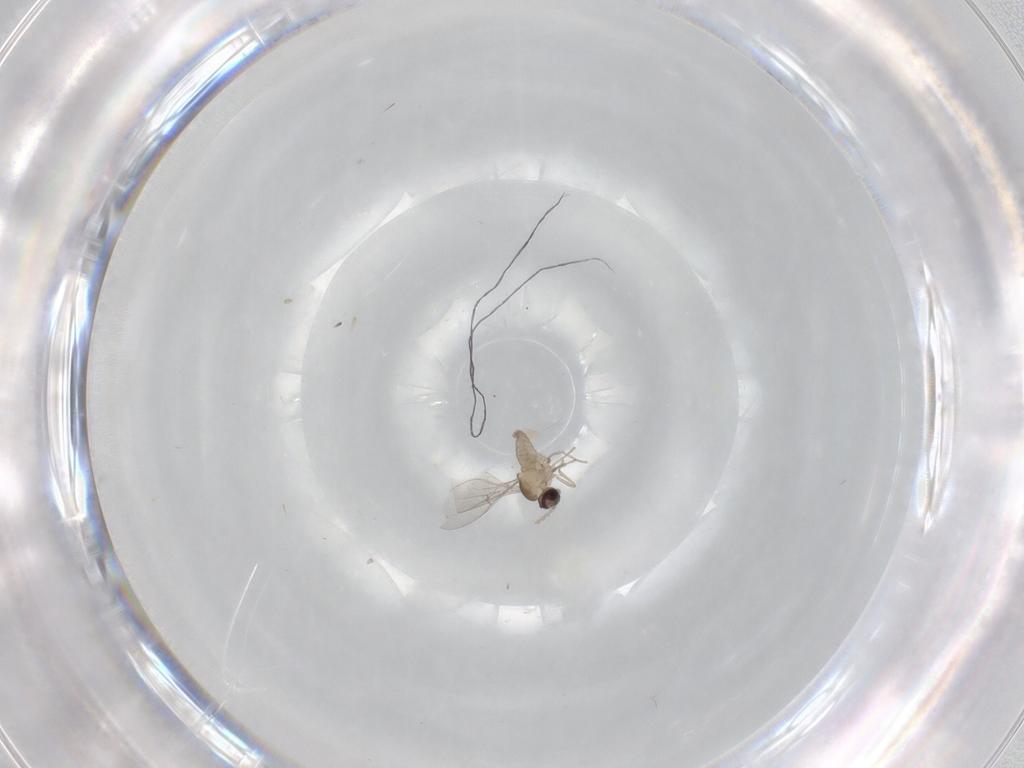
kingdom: Animalia
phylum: Arthropoda
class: Insecta
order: Diptera
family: Cecidomyiidae
